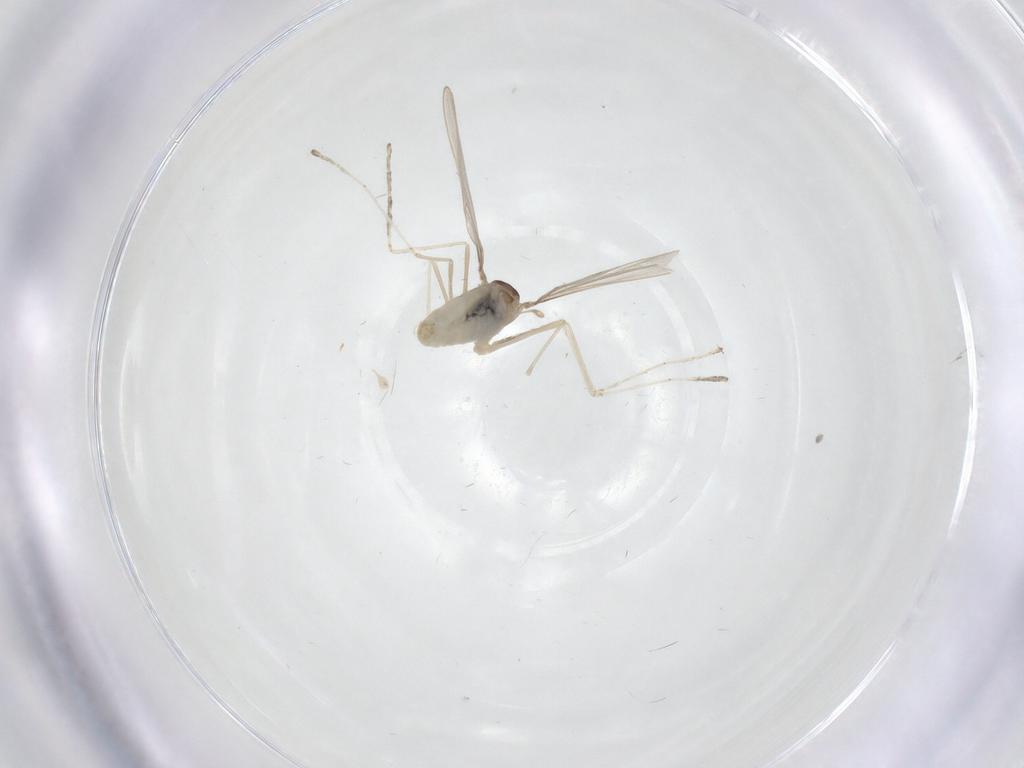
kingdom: Animalia
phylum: Arthropoda
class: Insecta
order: Diptera
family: Cecidomyiidae
